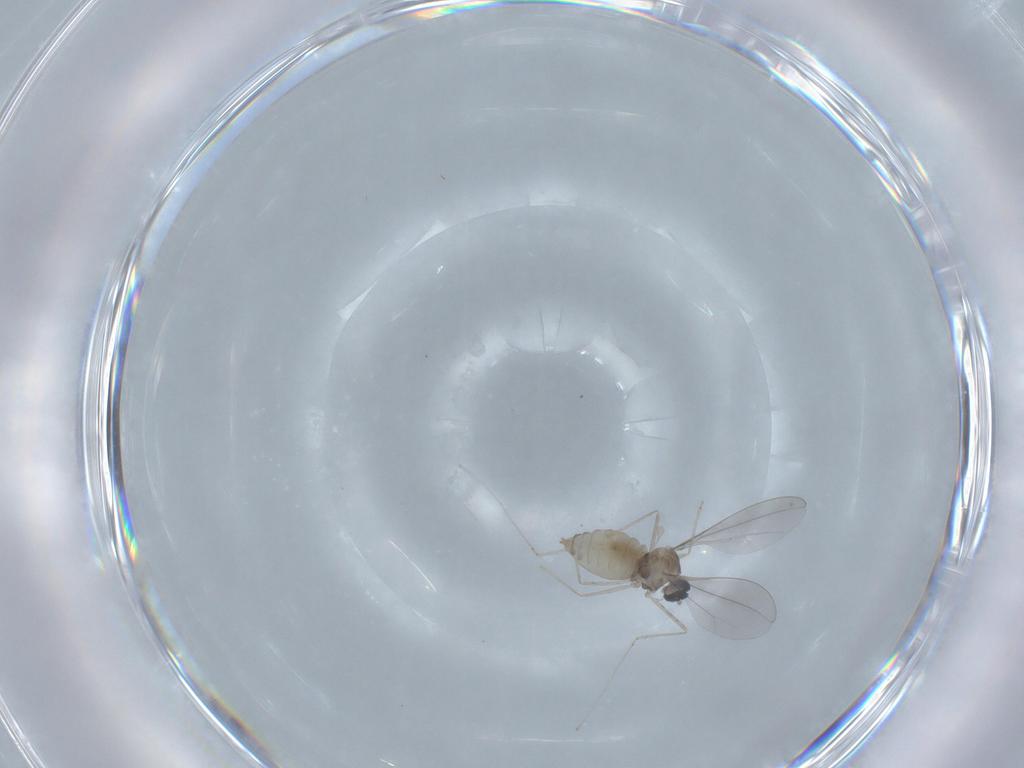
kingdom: Animalia
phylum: Arthropoda
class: Insecta
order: Diptera
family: Cecidomyiidae
